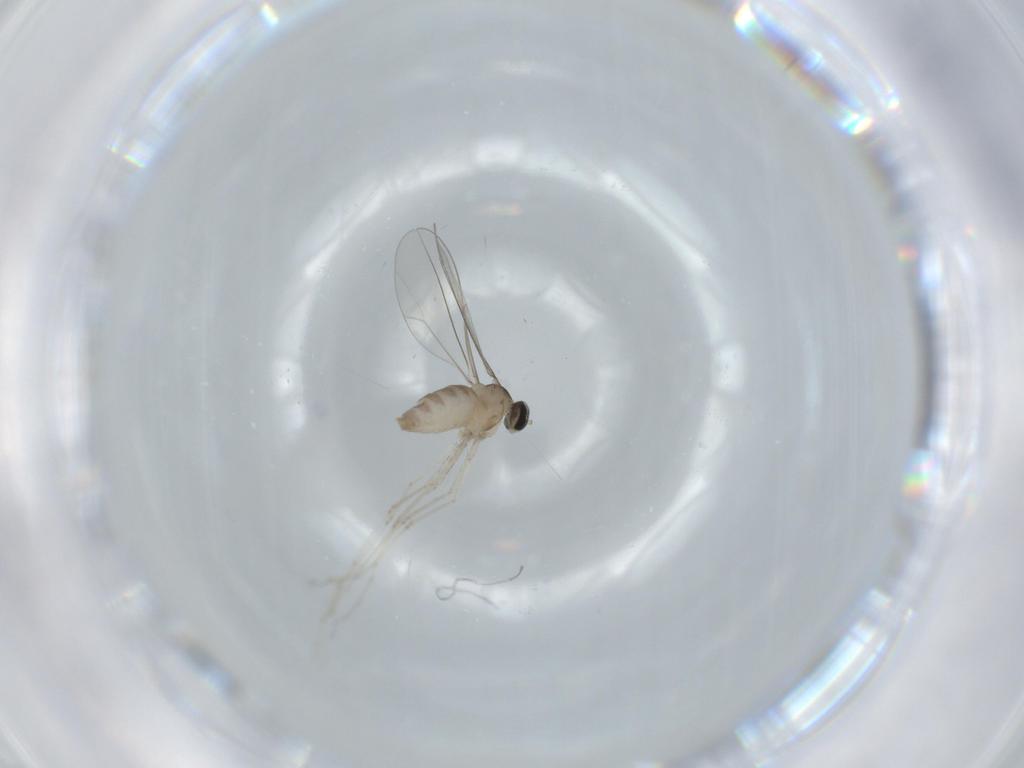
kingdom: Animalia
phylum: Arthropoda
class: Insecta
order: Diptera
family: Cecidomyiidae
